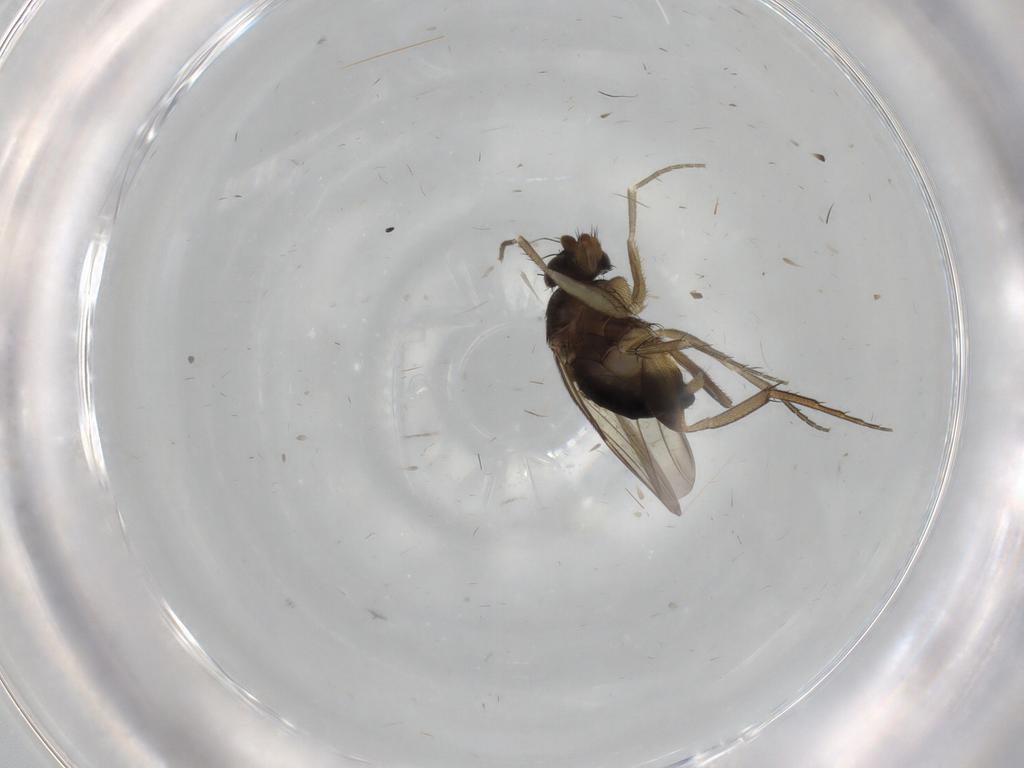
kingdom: Animalia
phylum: Arthropoda
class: Insecta
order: Diptera
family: Phoridae
